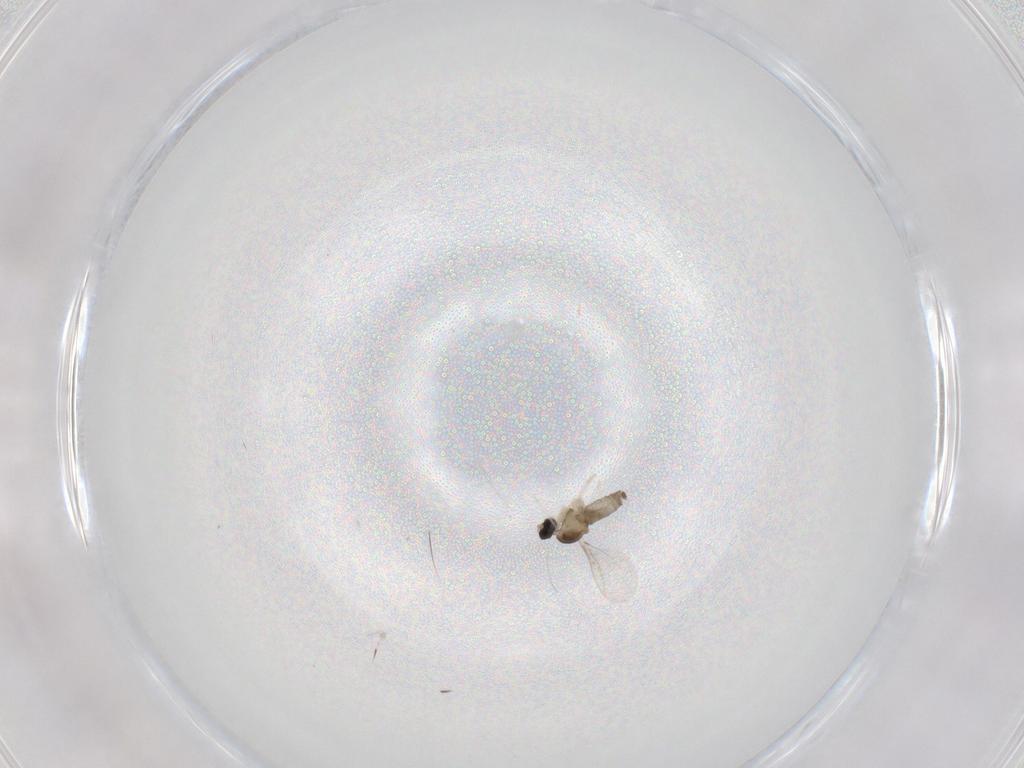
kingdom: Animalia
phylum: Arthropoda
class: Insecta
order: Diptera
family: Cecidomyiidae
